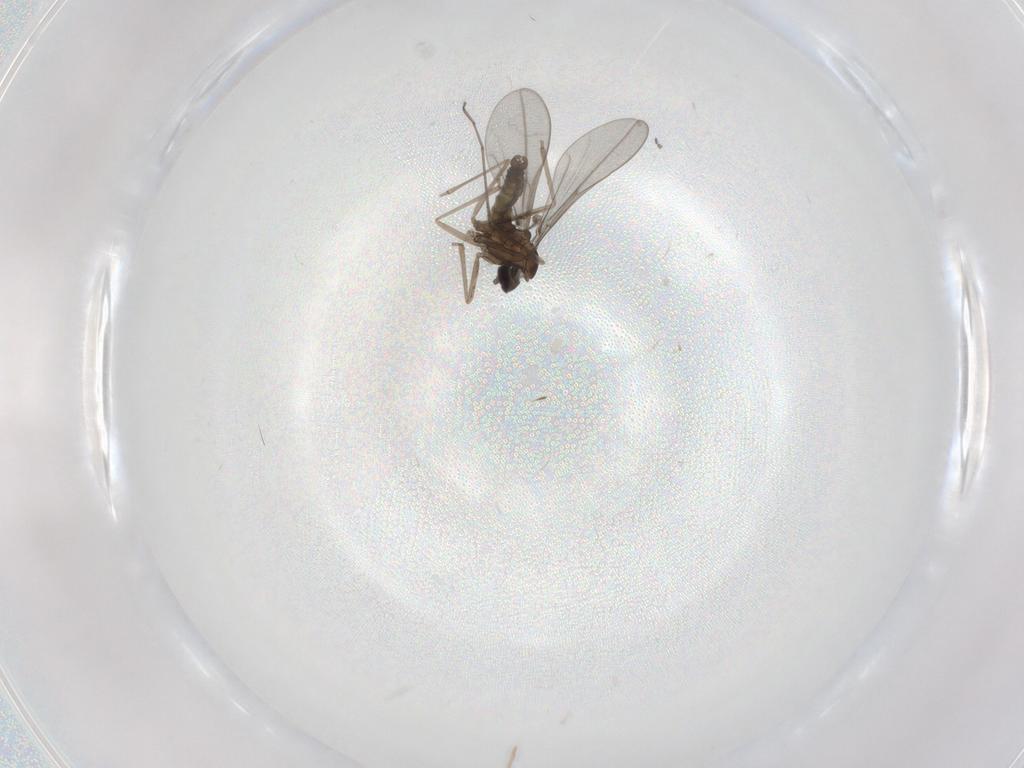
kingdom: Animalia
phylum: Arthropoda
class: Insecta
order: Diptera
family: Cecidomyiidae
